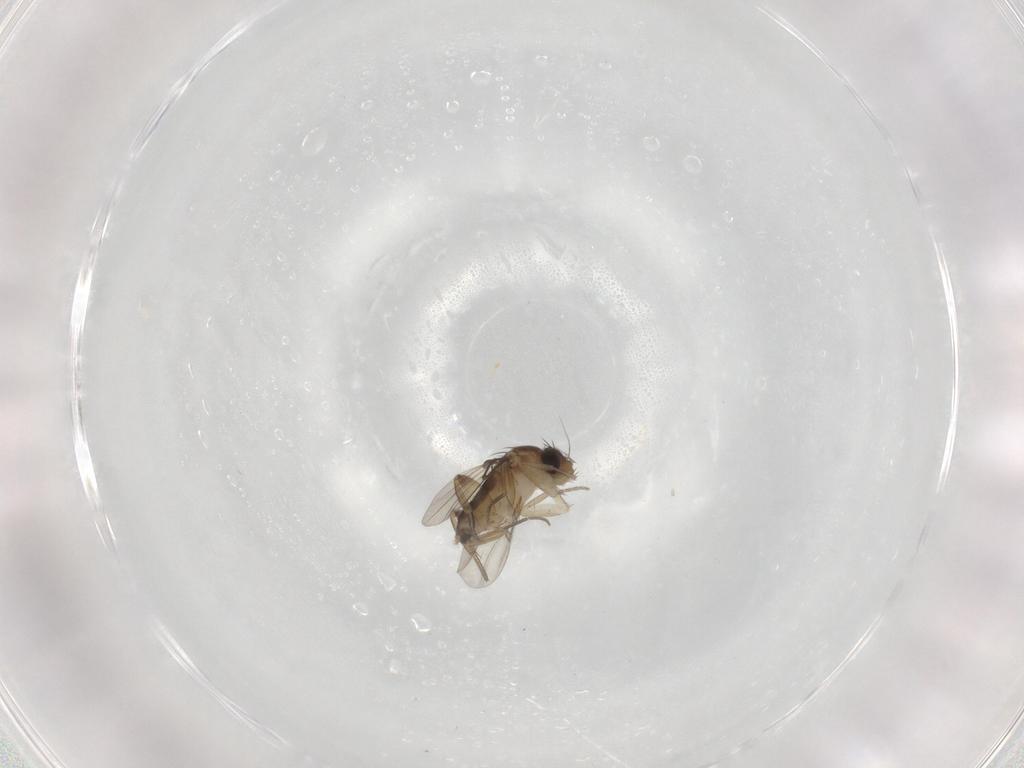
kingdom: Animalia
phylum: Arthropoda
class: Insecta
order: Diptera
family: Phoridae
